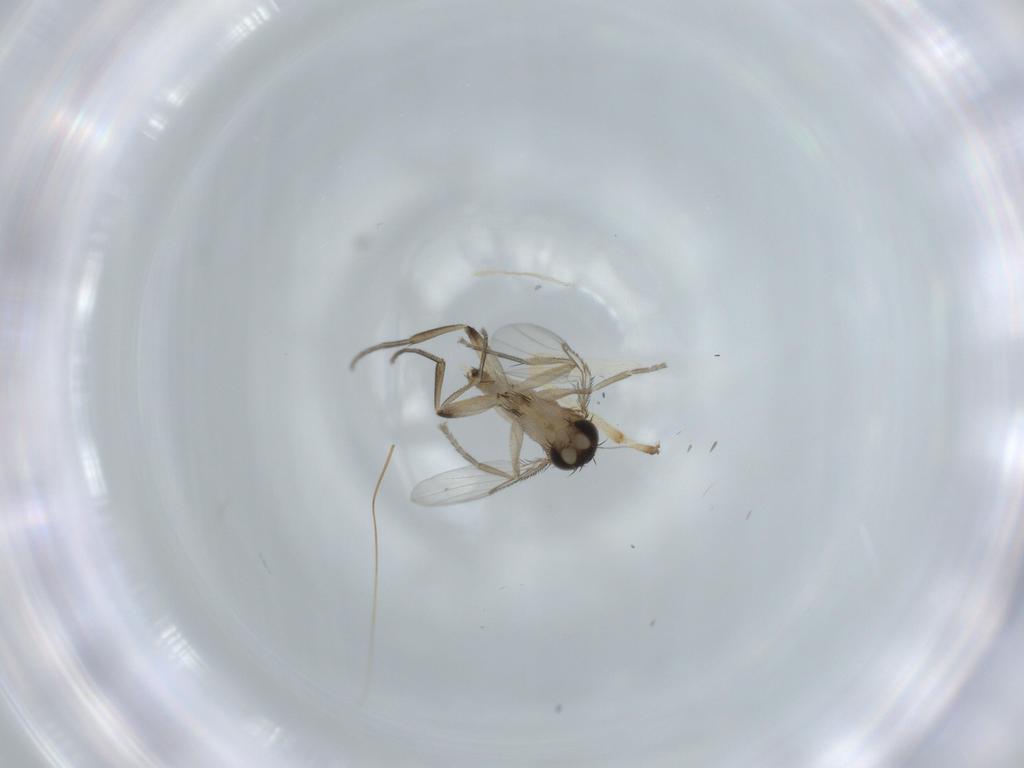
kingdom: Animalia
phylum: Arthropoda
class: Insecta
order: Diptera
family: Phoridae
